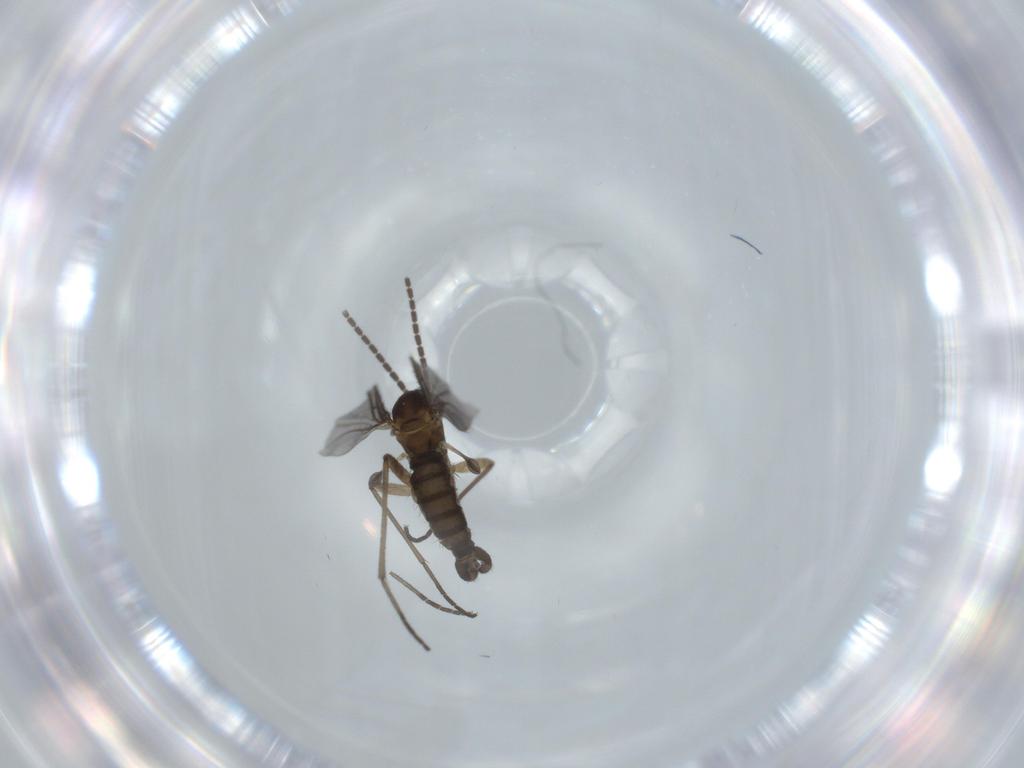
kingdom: Animalia
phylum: Arthropoda
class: Insecta
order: Diptera
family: Sciaridae
